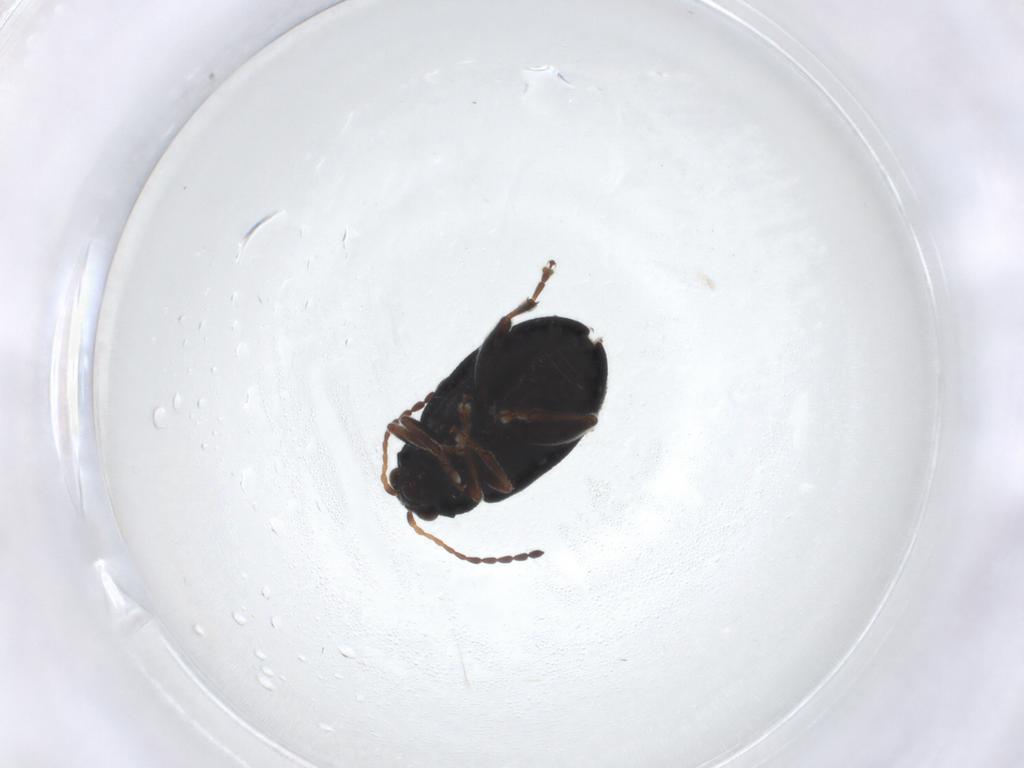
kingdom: Animalia
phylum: Arthropoda
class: Insecta
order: Coleoptera
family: Chrysomelidae
